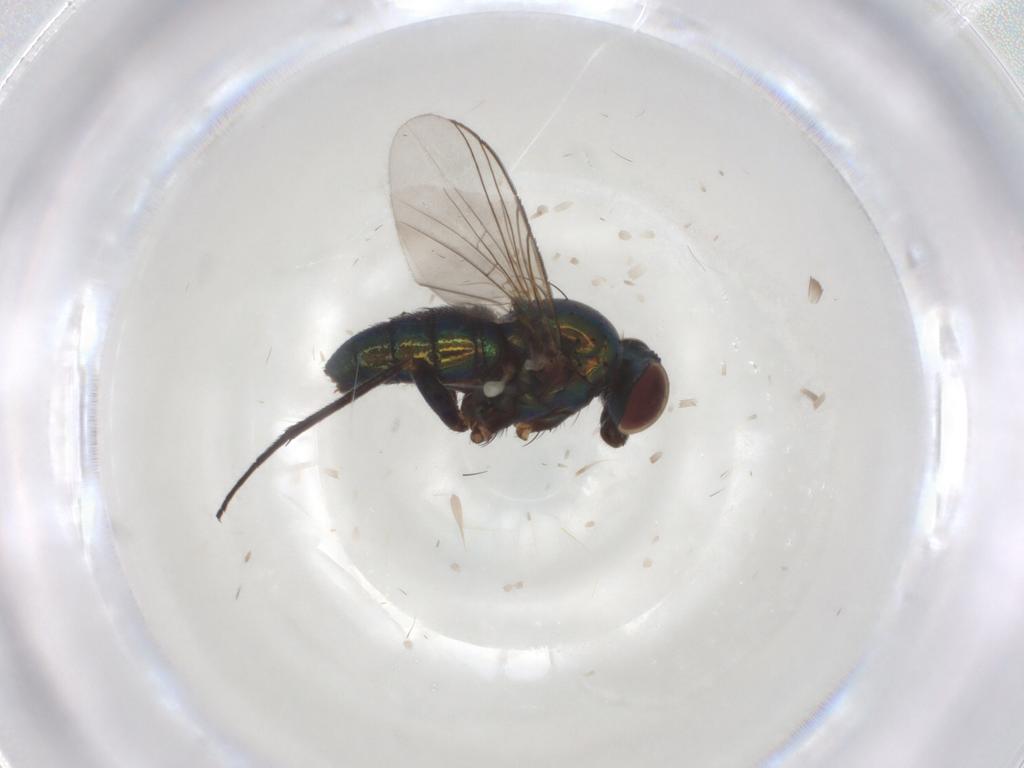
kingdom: Animalia
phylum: Arthropoda
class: Insecta
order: Diptera
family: Dolichopodidae
